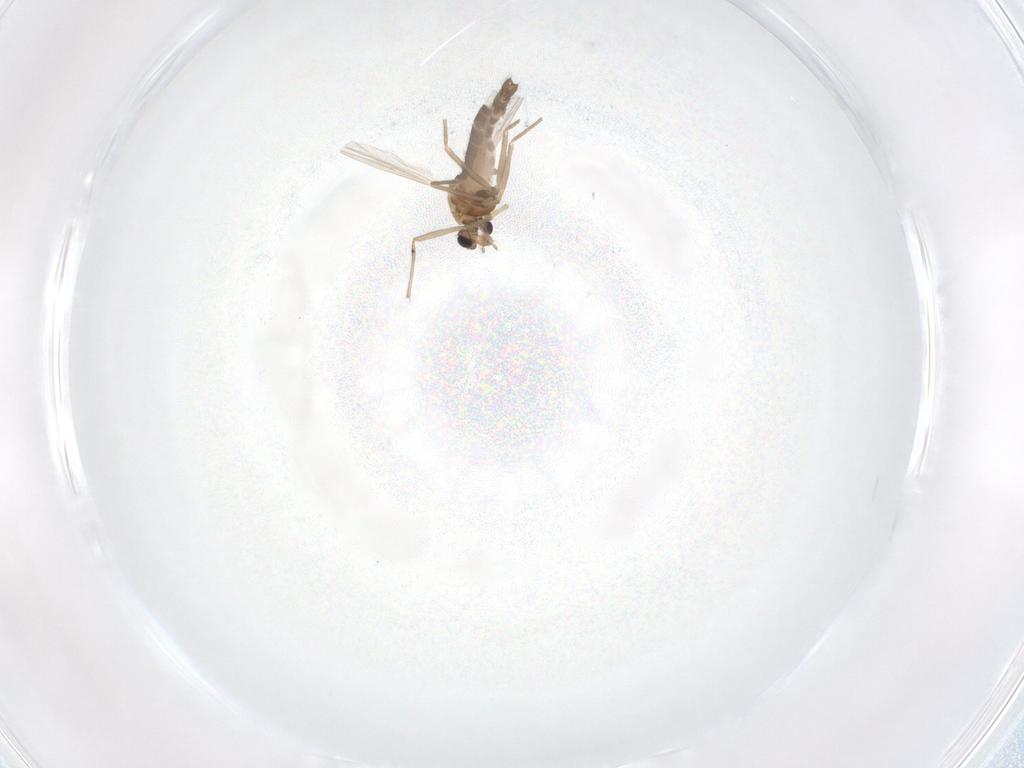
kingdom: Animalia
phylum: Arthropoda
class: Insecta
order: Diptera
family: Chironomidae
